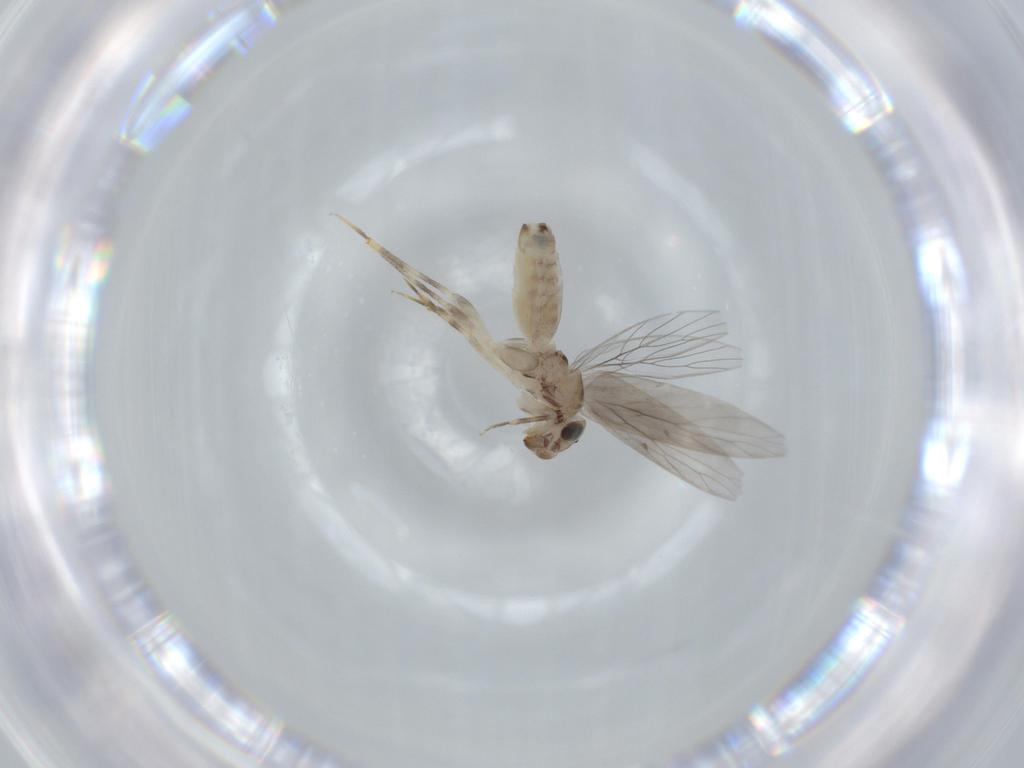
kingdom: Animalia
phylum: Arthropoda
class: Insecta
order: Psocodea
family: Lepidopsocidae
